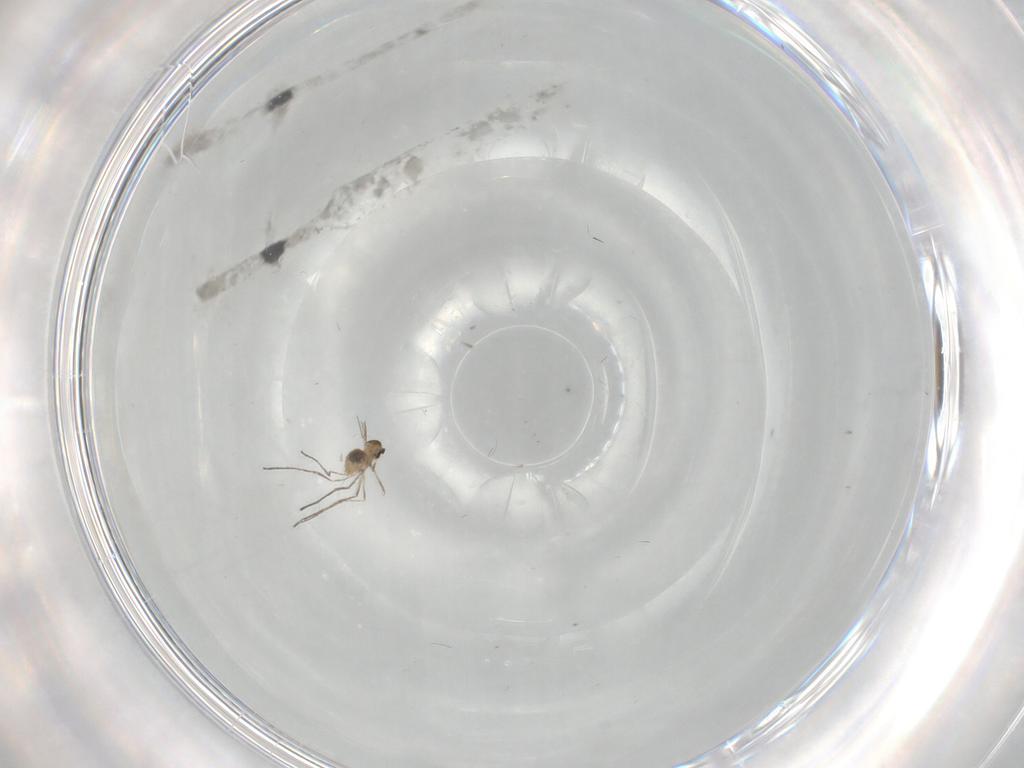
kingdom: Animalia
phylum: Arthropoda
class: Insecta
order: Diptera
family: Cecidomyiidae
